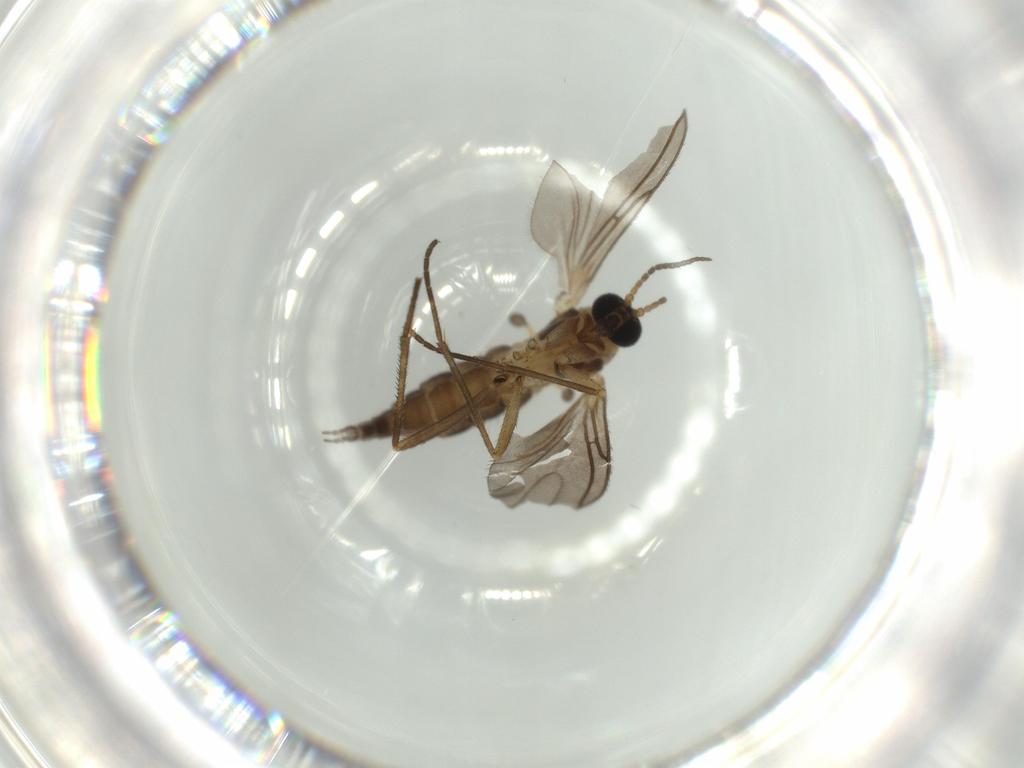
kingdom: Animalia
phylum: Arthropoda
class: Insecta
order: Diptera
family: Sciaridae
